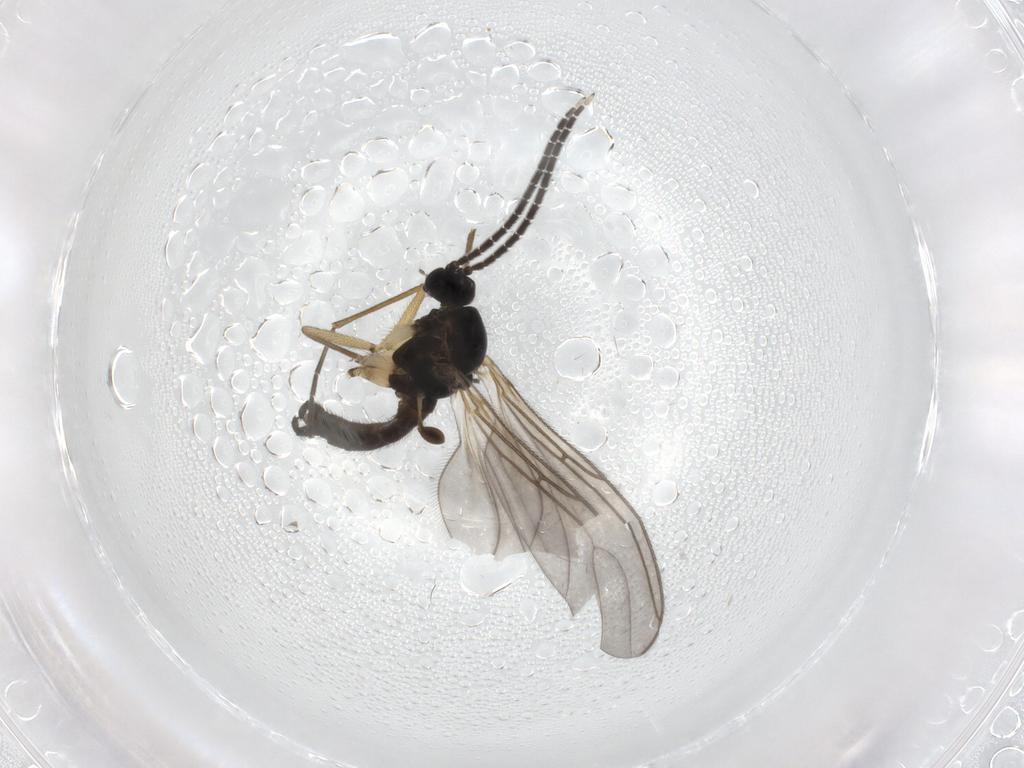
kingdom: Animalia
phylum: Arthropoda
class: Insecta
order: Diptera
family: Sciaridae
